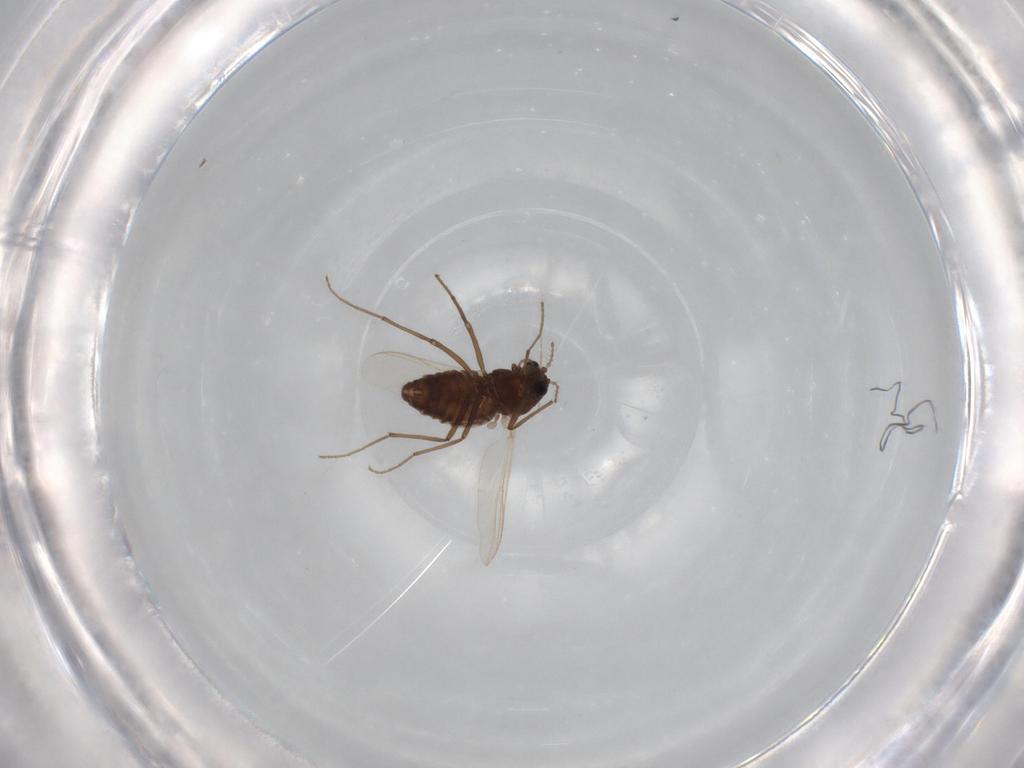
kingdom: Animalia
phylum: Arthropoda
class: Insecta
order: Diptera
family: Chironomidae
